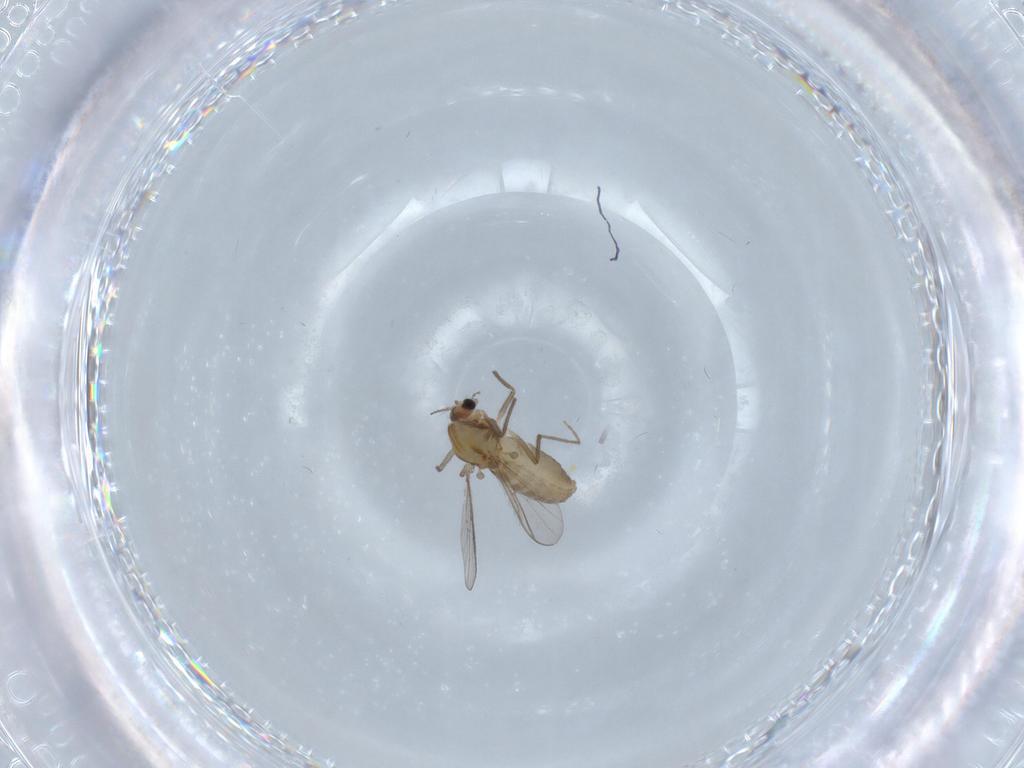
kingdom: Animalia
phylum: Arthropoda
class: Insecta
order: Diptera
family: Chironomidae
